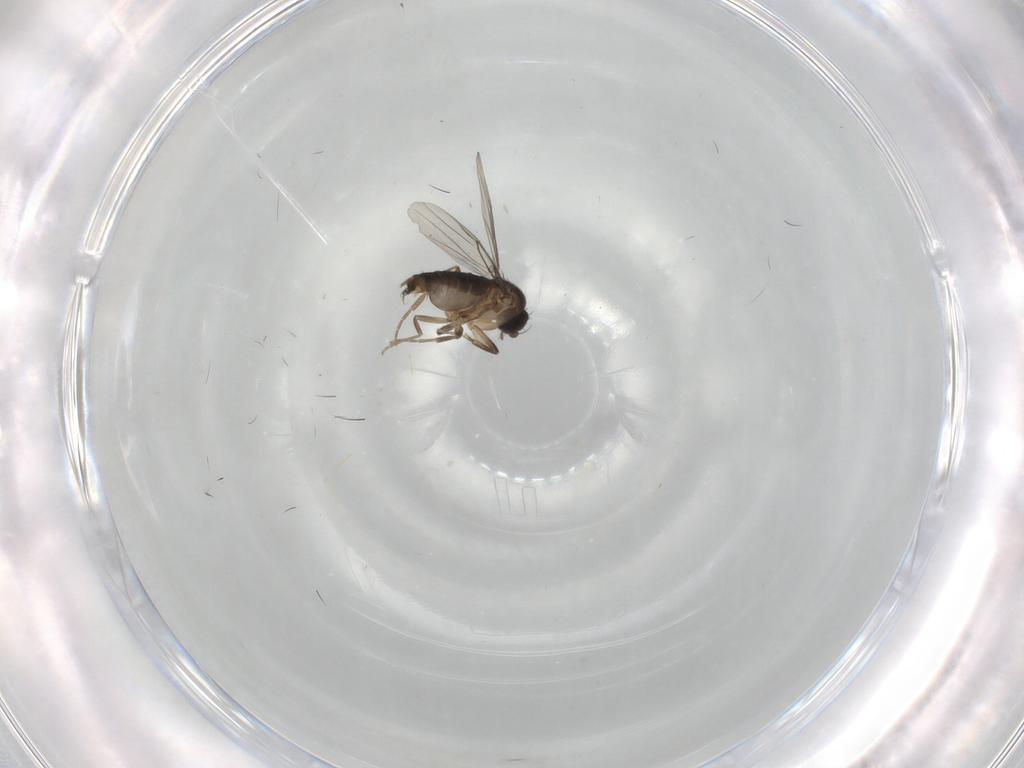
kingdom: Animalia
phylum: Arthropoda
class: Insecta
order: Diptera
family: Phoridae
